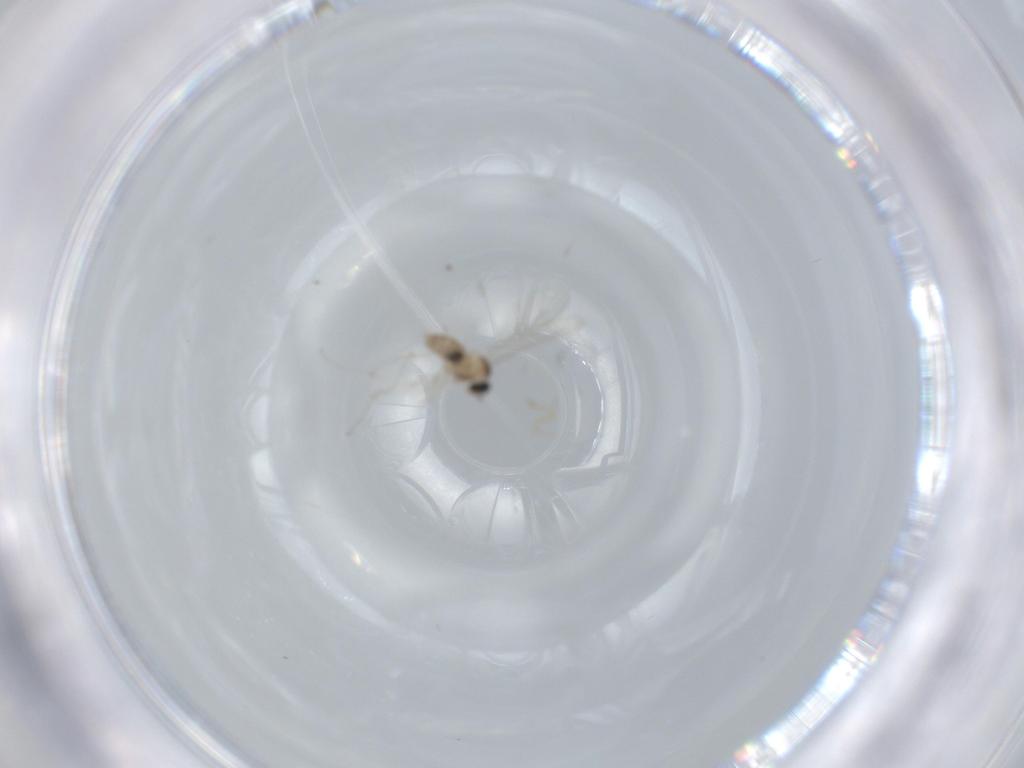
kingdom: Animalia
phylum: Arthropoda
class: Insecta
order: Diptera
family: Cecidomyiidae
